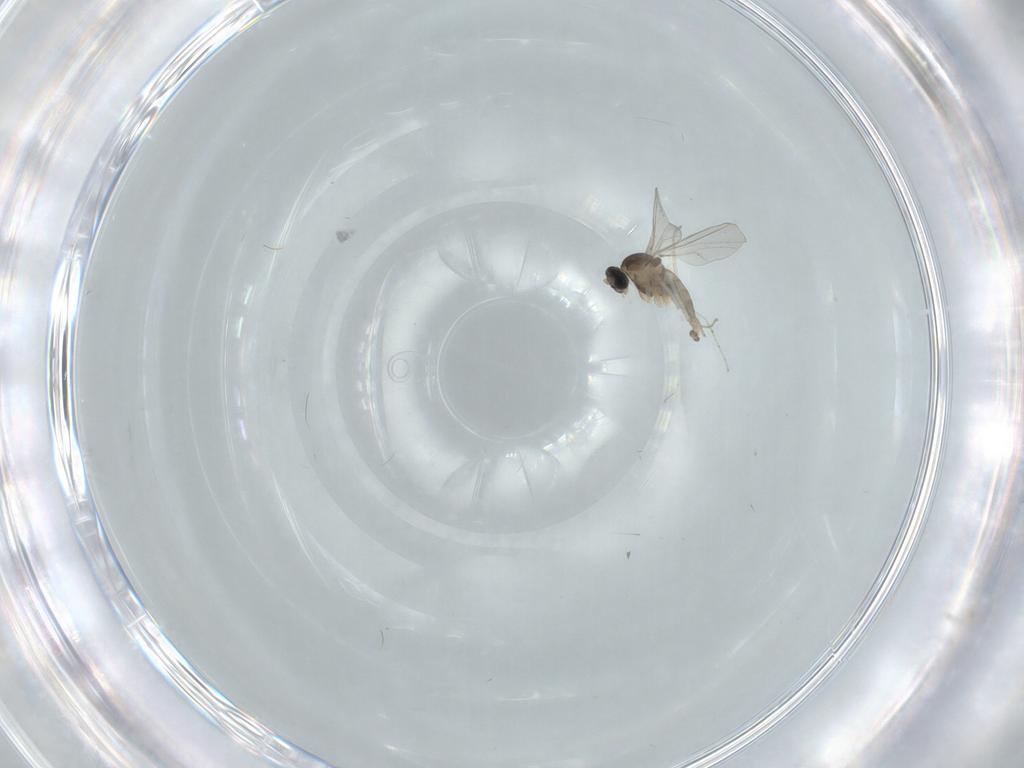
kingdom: Animalia
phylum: Arthropoda
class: Insecta
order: Diptera
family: Cecidomyiidae
